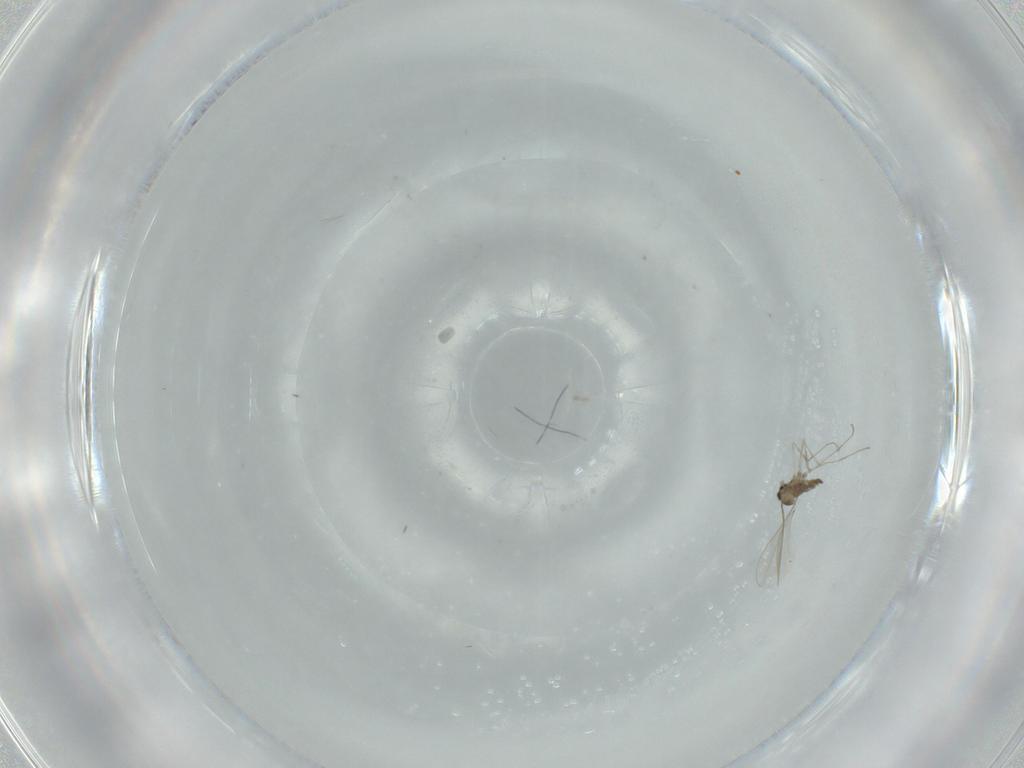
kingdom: Animalia
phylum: Arthropoda
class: Insecta
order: Diptera
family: Cecidomyiidae
